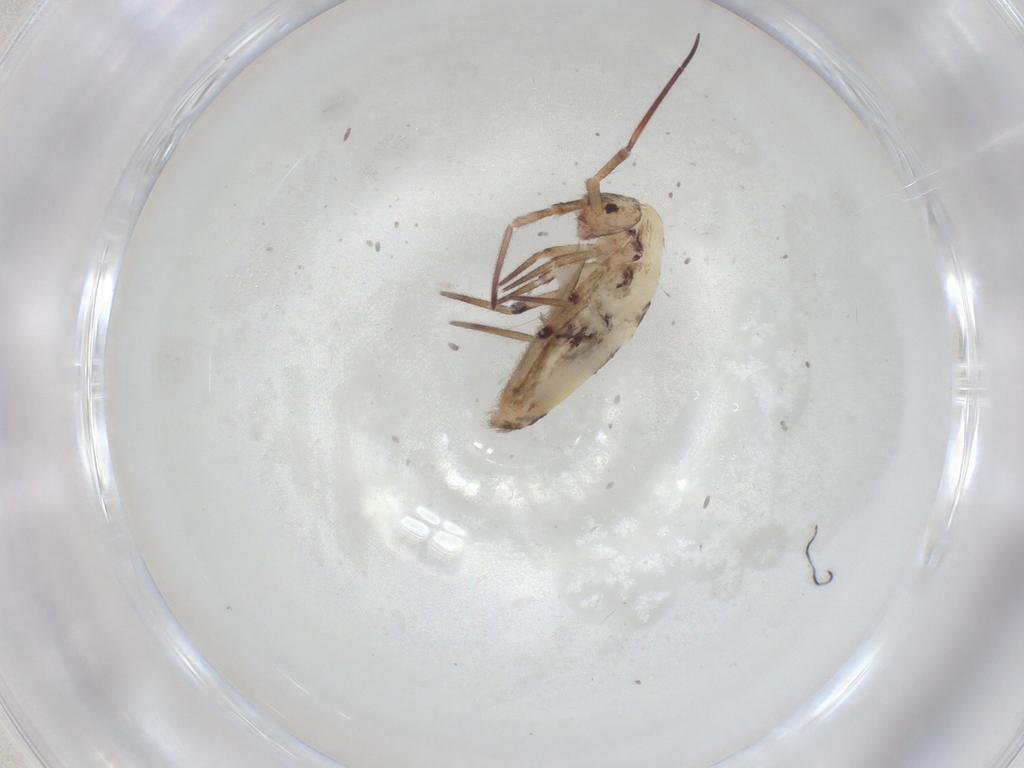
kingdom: Animalia
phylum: Arthropoda
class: Collembola
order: Entomobryomorpha
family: Entomobryidae
